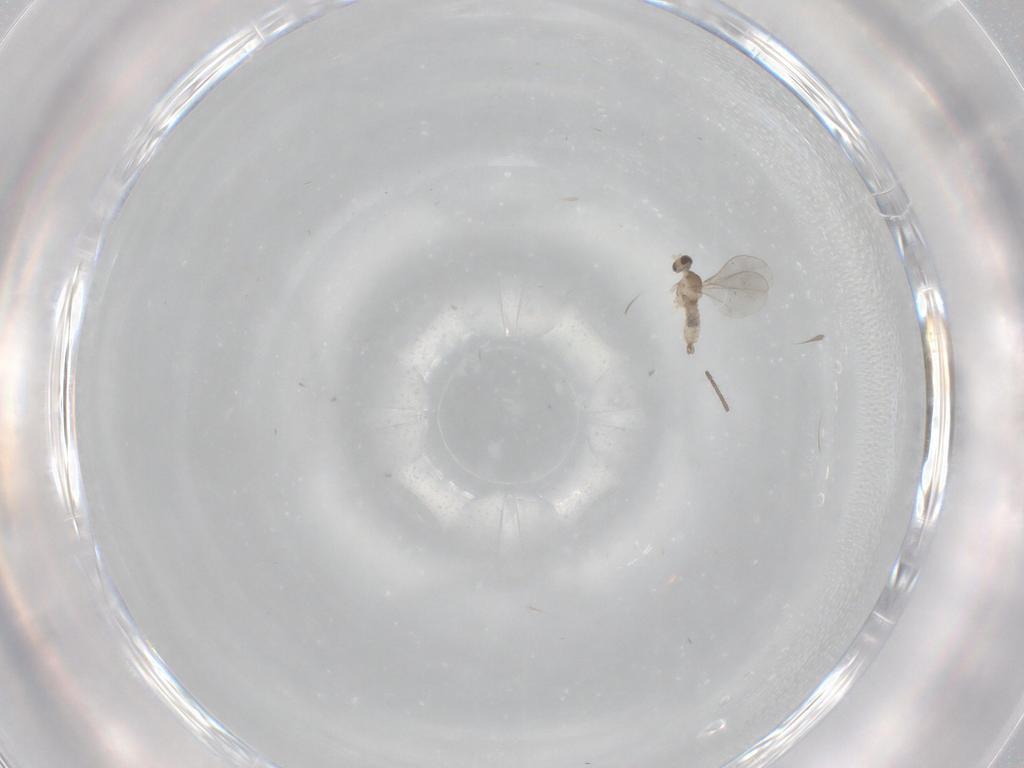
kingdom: Animalia
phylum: Arthropoda
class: Insecta
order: Diptera
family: Cecidomyiidae
